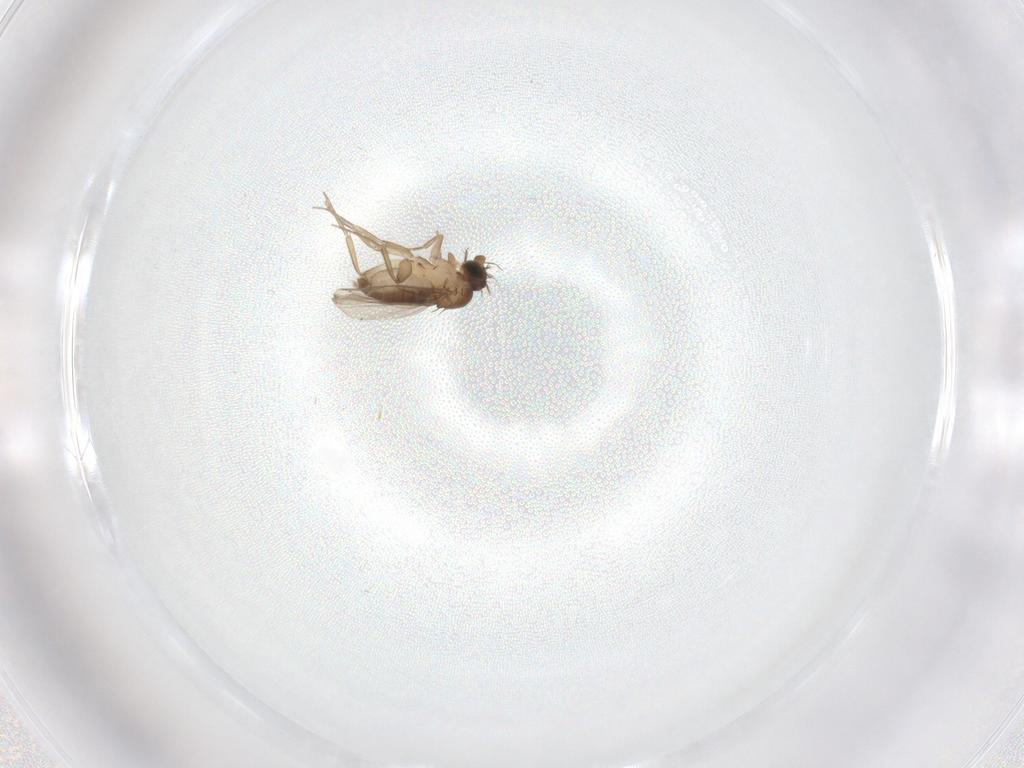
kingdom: Animalia
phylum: Arthropoda
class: Insecta
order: Diptera
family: Phoridae
